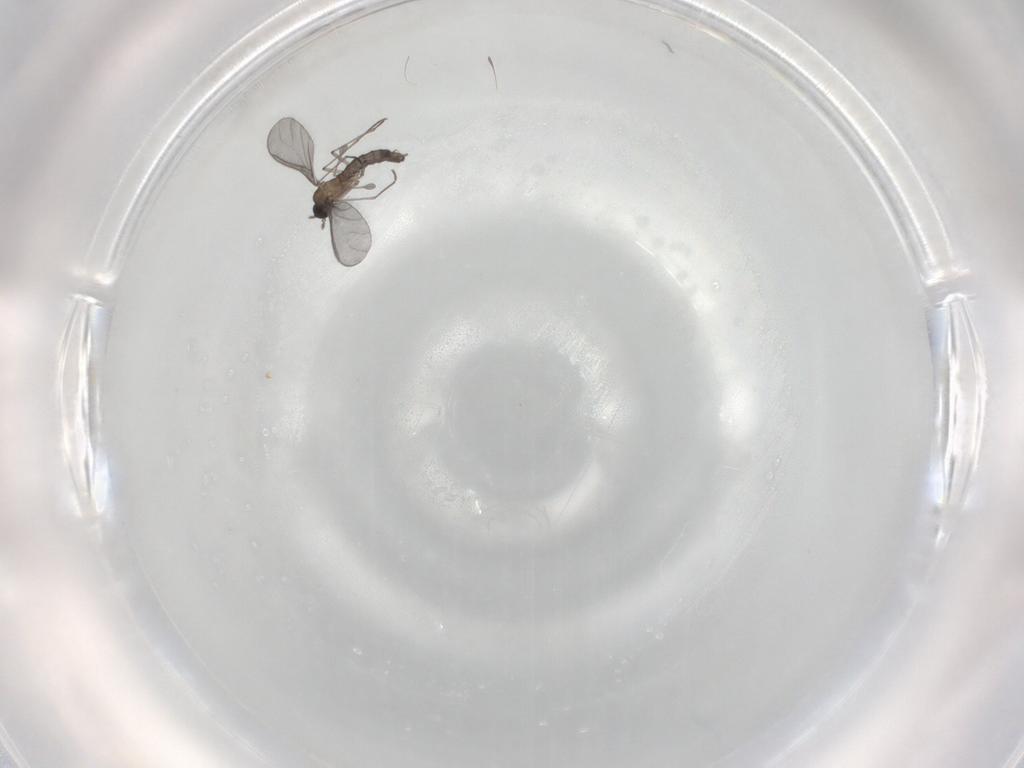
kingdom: Animalia
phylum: Arthropoda
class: Insecta
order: Diptera
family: Sciaridae
